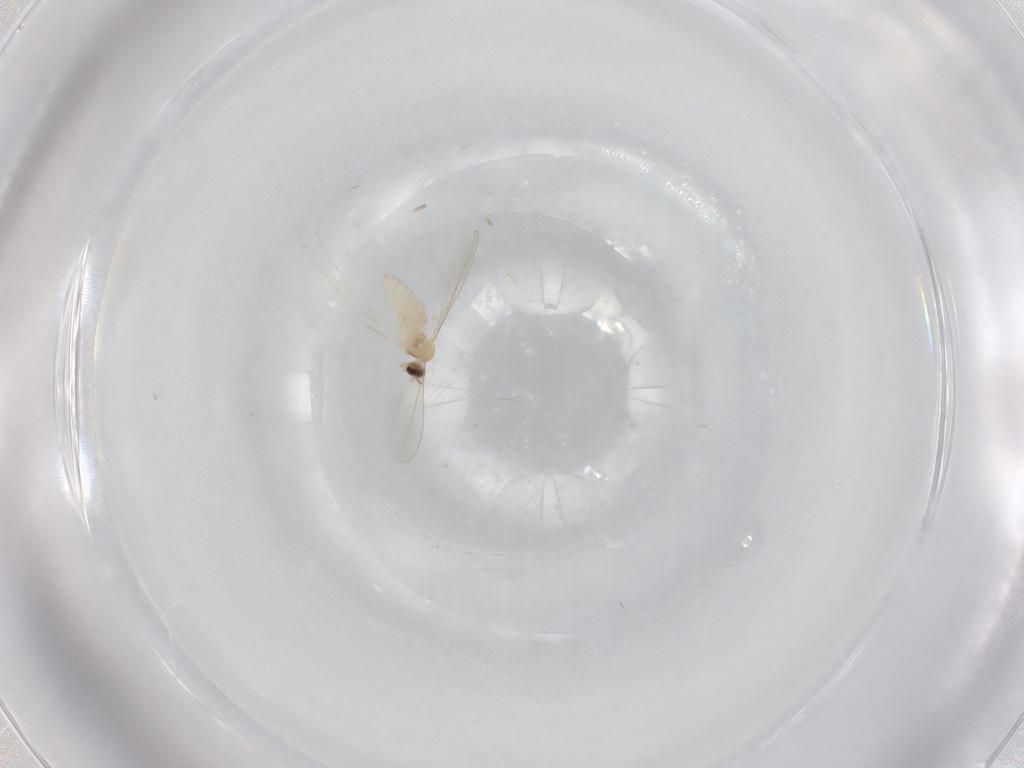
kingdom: Animalia
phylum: Arthropoda
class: Insecta
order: Diptera
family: Cecidomyiidae
